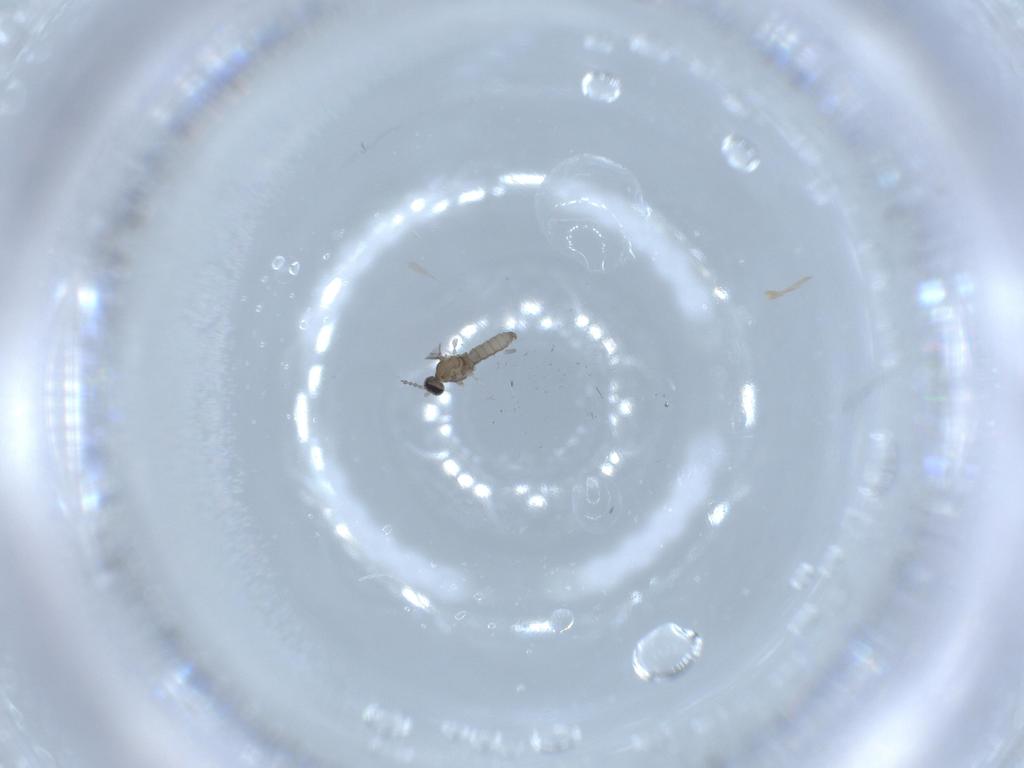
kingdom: Animalia
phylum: Arthropoda
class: Insecta
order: Diptera
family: Cecidomyiidae
